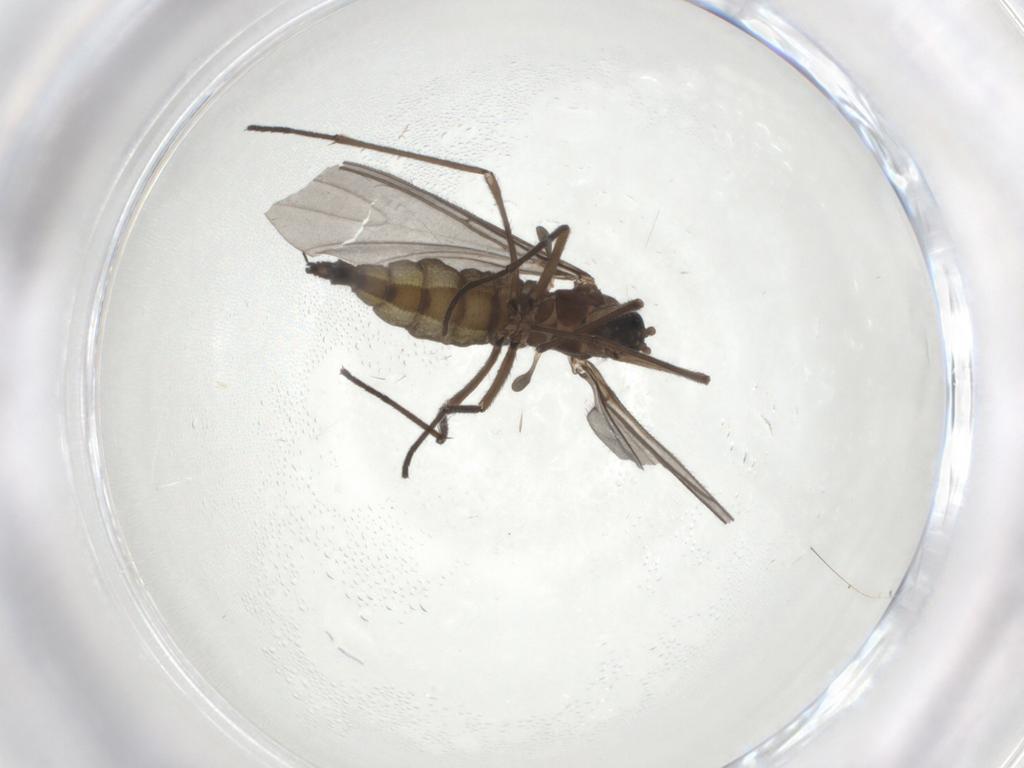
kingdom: Animalia
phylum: Arthropoda
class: Insecta
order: Diptera
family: Sciaridae
